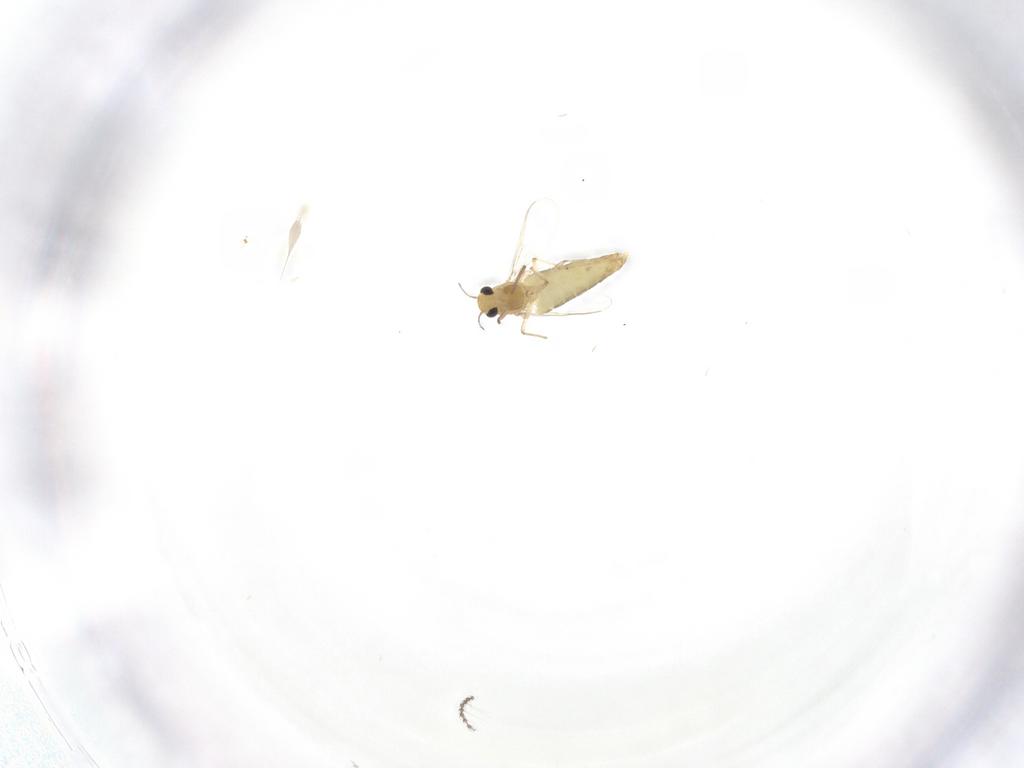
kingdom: Animalia
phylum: Arthropoda
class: Insecta
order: Diptera
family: Chironomidae
